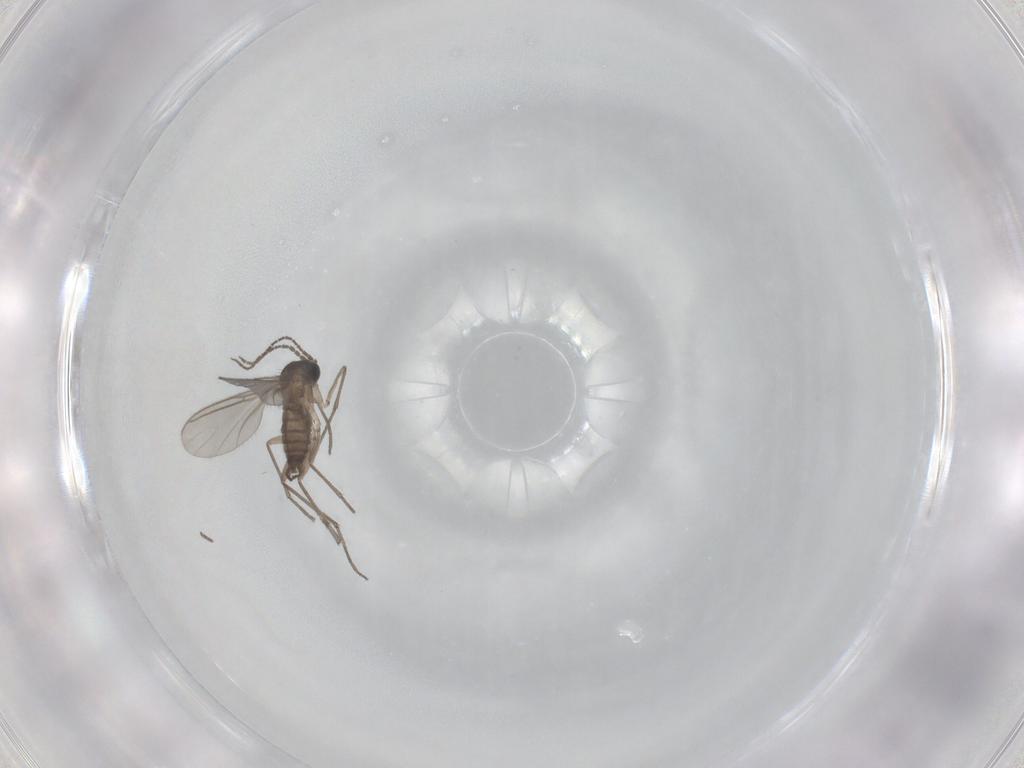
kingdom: Animalia
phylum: Arthropoda
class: Insecta
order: Diptera
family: Sciaridae
